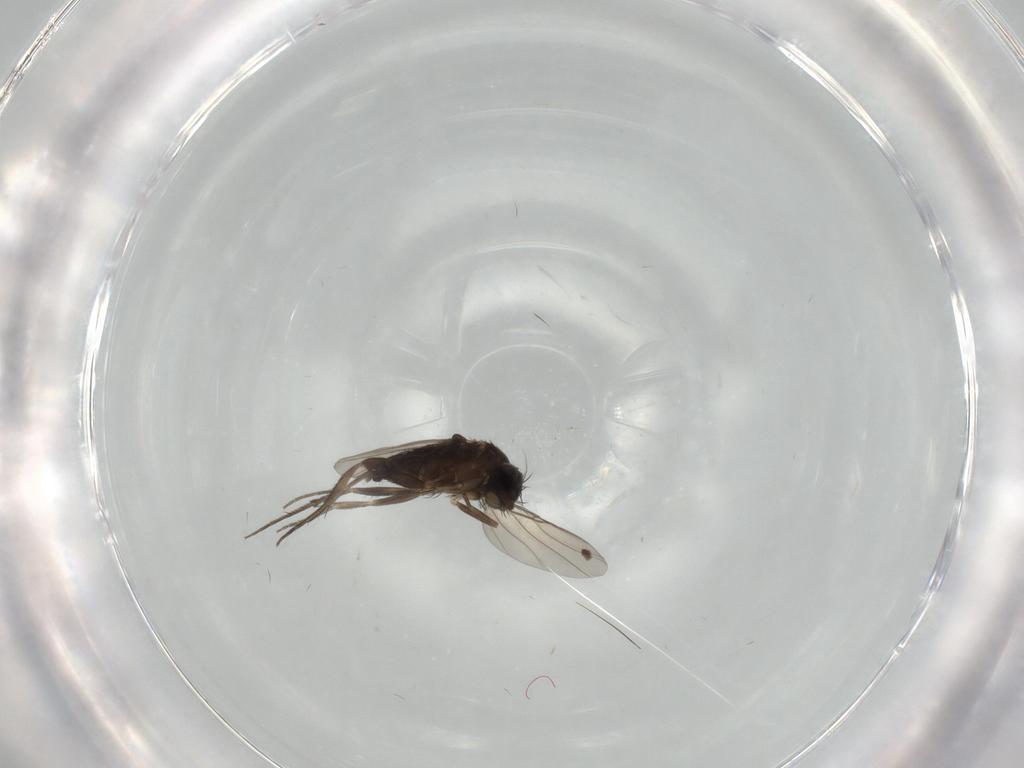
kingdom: Animalia
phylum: Arthropoda
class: Insecta
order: Diptera
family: Phoridae
